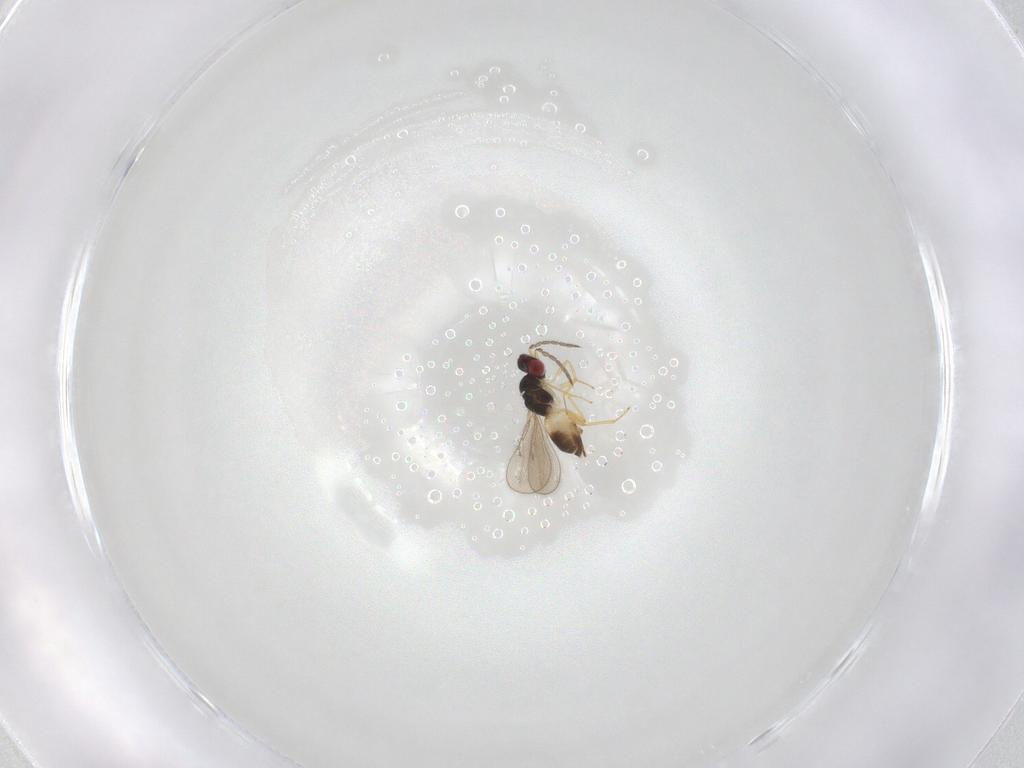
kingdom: Animalia
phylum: Arthropoda
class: Insecta
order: Hymenoptera
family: Eulophidae
